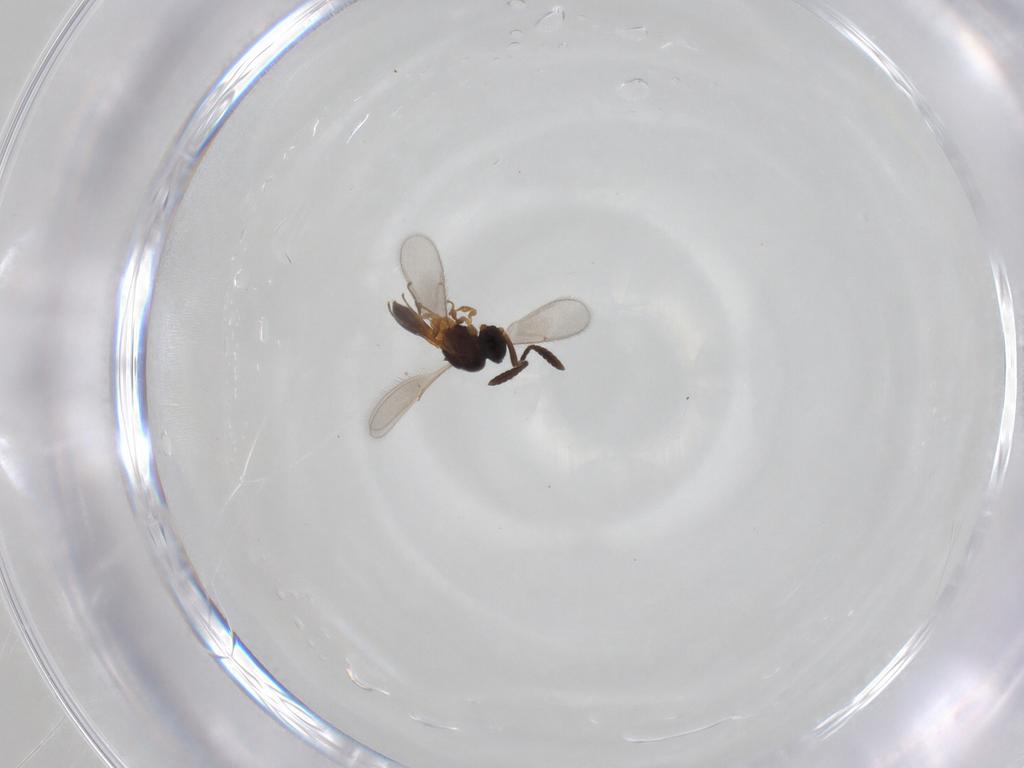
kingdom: Animalia
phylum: Arthropoda
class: Insecta
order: Hymenoptera
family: Scelionidae
